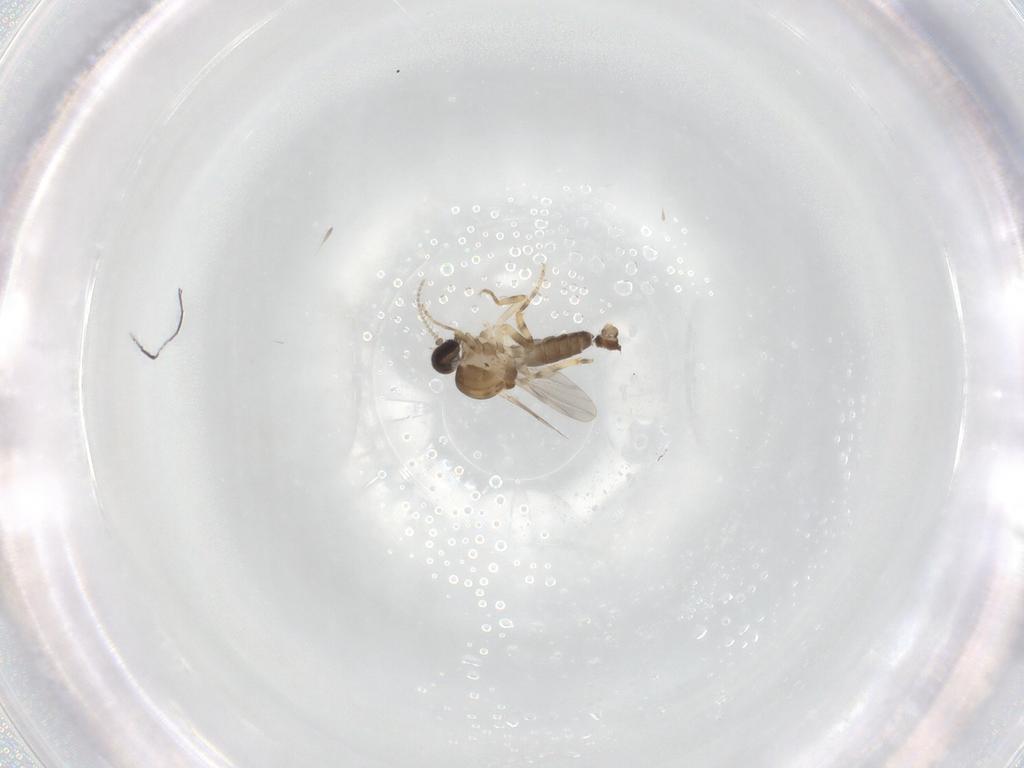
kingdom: Animalia
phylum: Arthropoda
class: Insecta
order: Diptera
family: Ceratopogonidae
